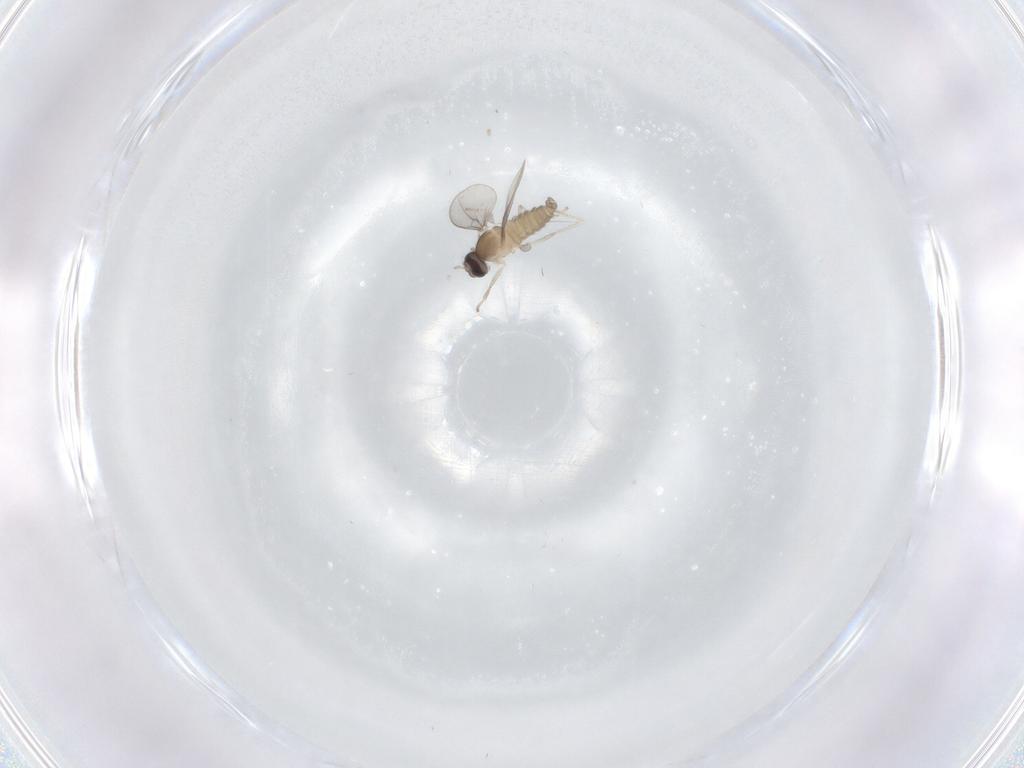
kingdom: Animalia
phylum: Arthropoda
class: Insecta
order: Diptera
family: Cecidomyiidae
